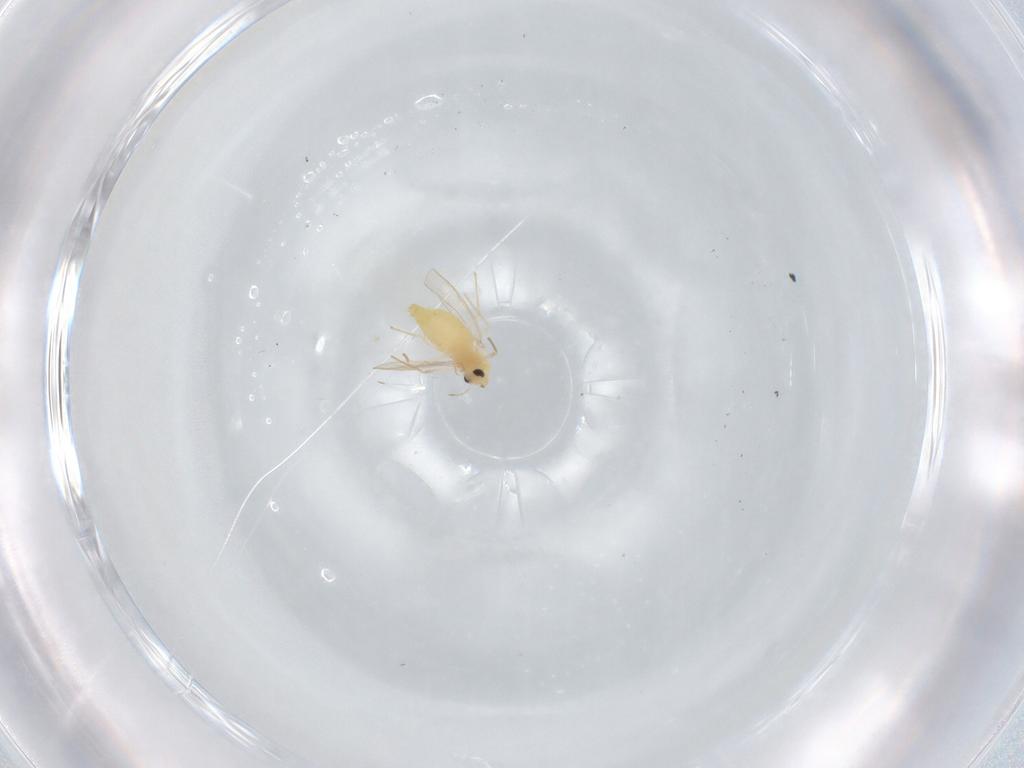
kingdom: Animalia
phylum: Arthropoda
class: Insecta
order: Diptera
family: Chironomidae
